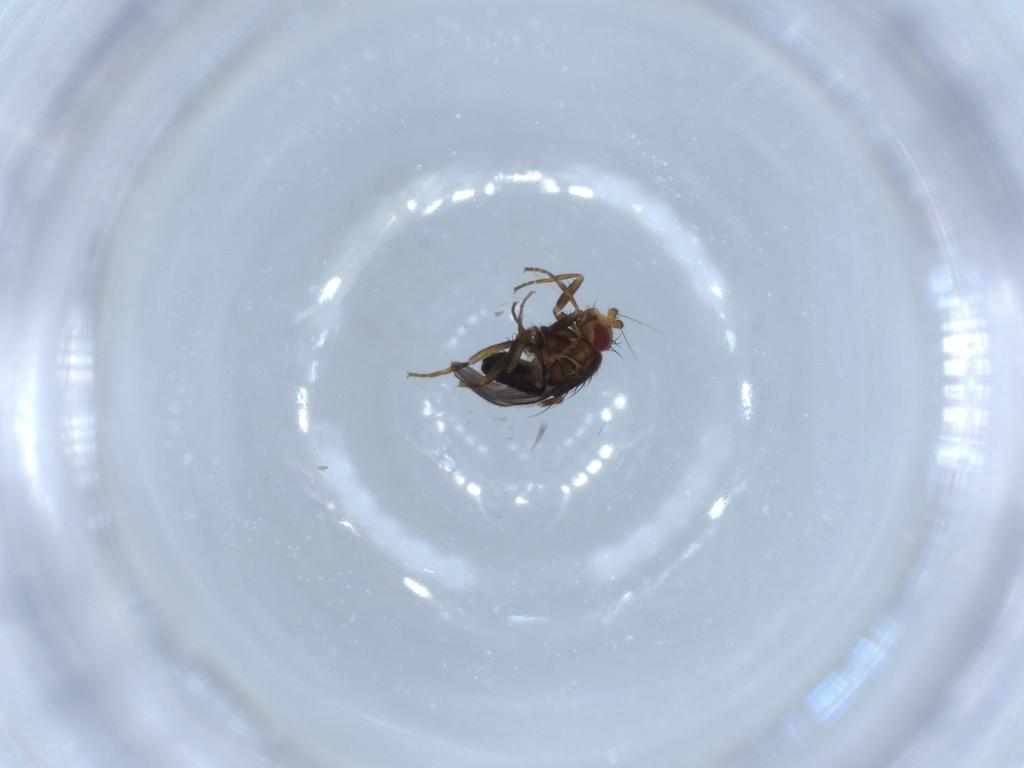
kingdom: Animalia
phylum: Arthropoda
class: Insecta
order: Diptera
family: Sphaeroceridae
